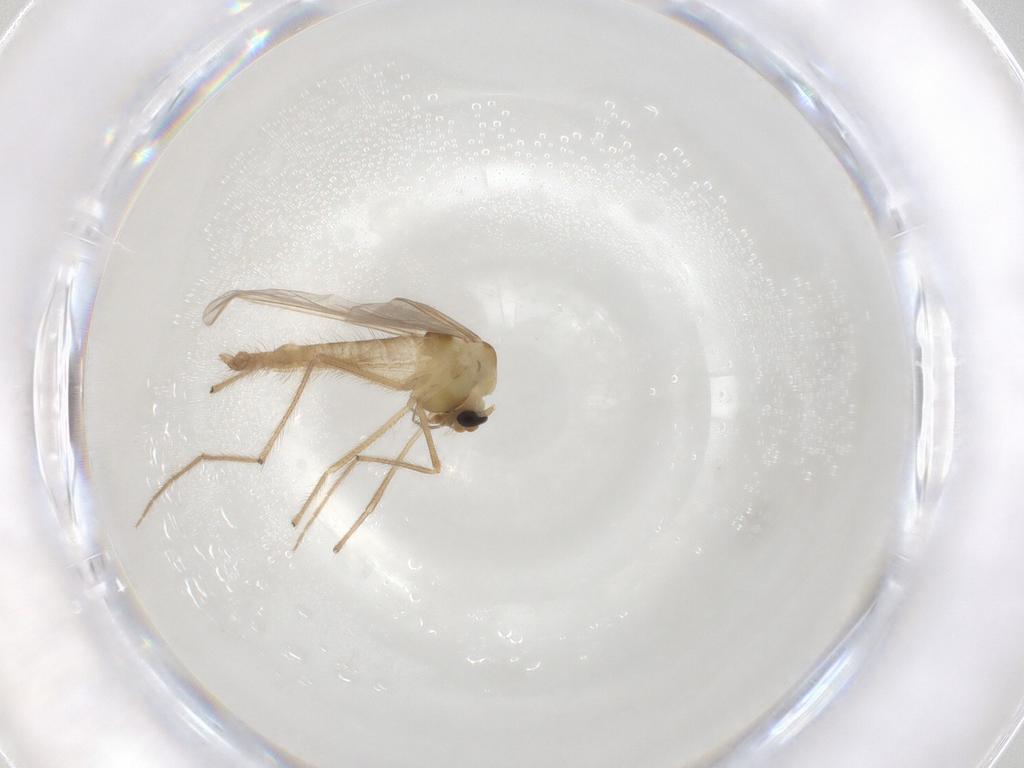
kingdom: Animalia
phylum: Arthropoda
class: Insecta
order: Diptera
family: Chironomidae
